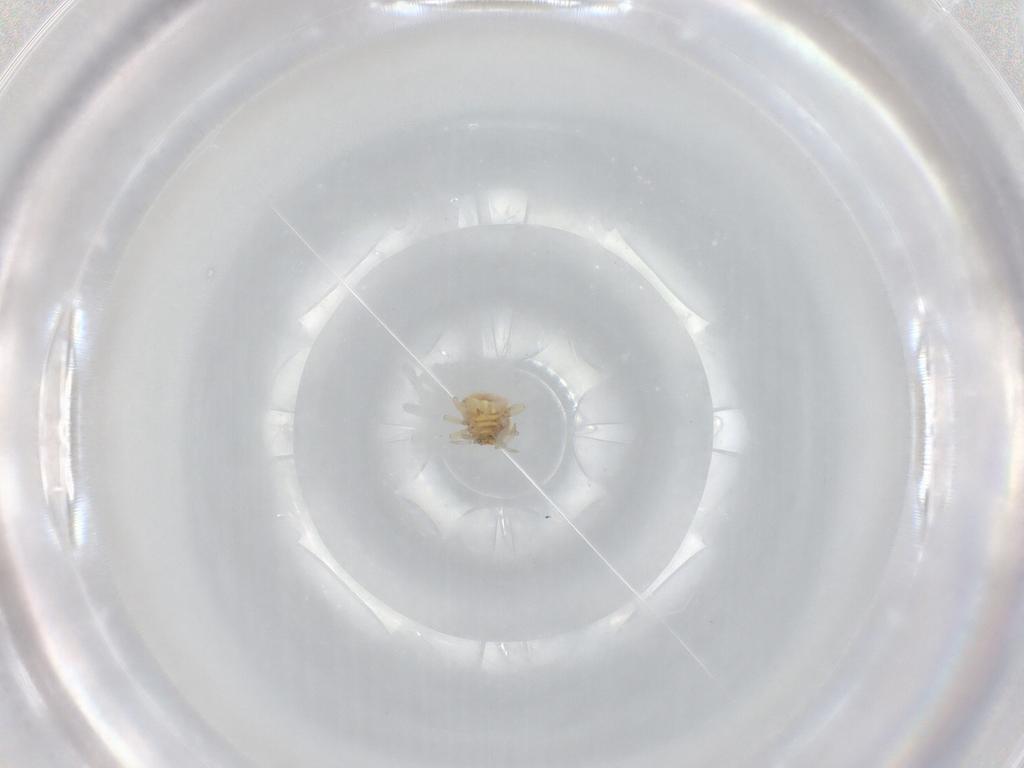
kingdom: Animalia
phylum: Arthropoda
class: Insecta
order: Neuroptera
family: Coniopterygidae
